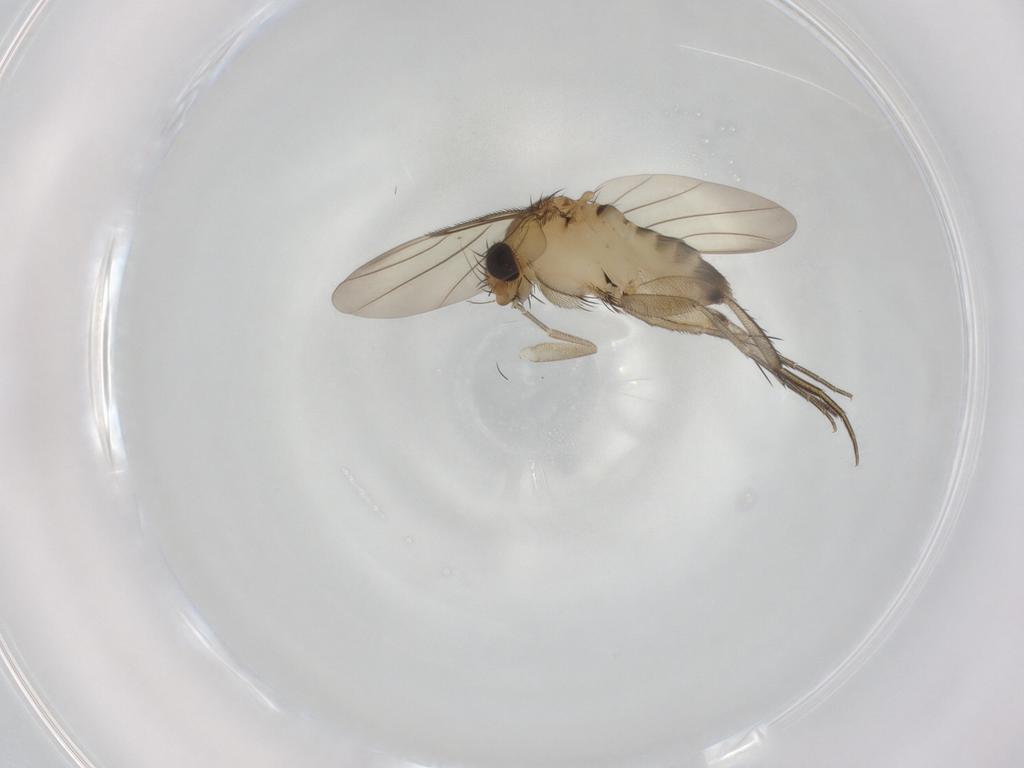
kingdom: Animalia
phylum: Arthropoda
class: Insecta
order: Diptera
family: Phoridae
